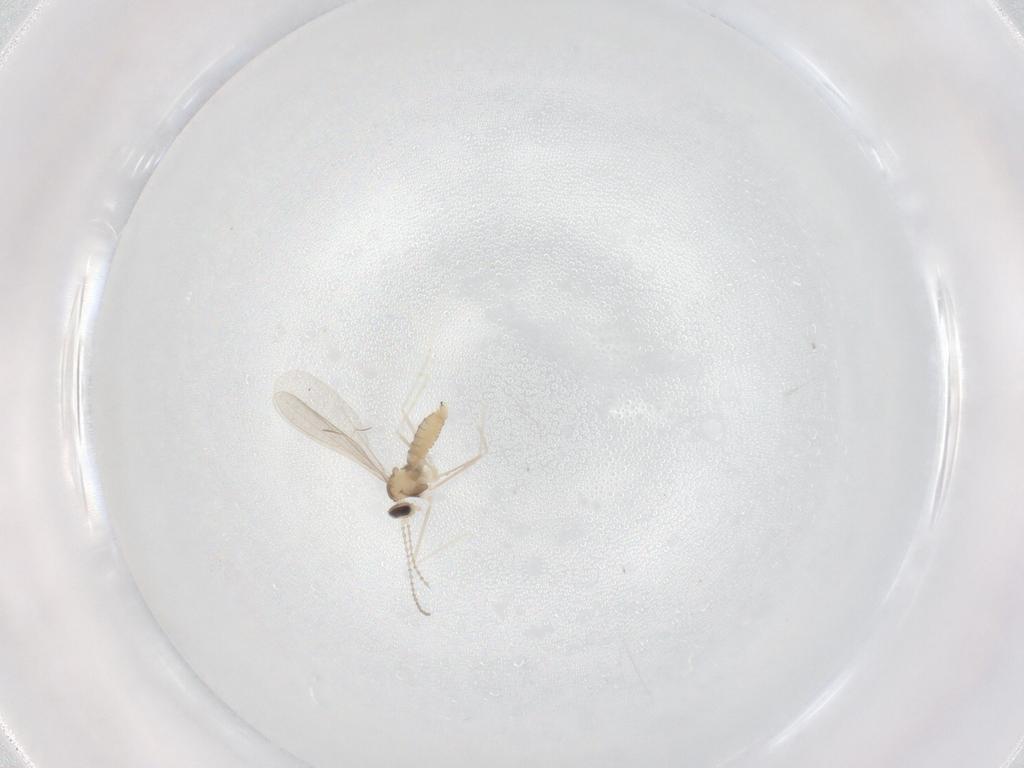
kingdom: Animalia
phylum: Arthropoda
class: Insecta
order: Diptera
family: Cecidomyiidae
